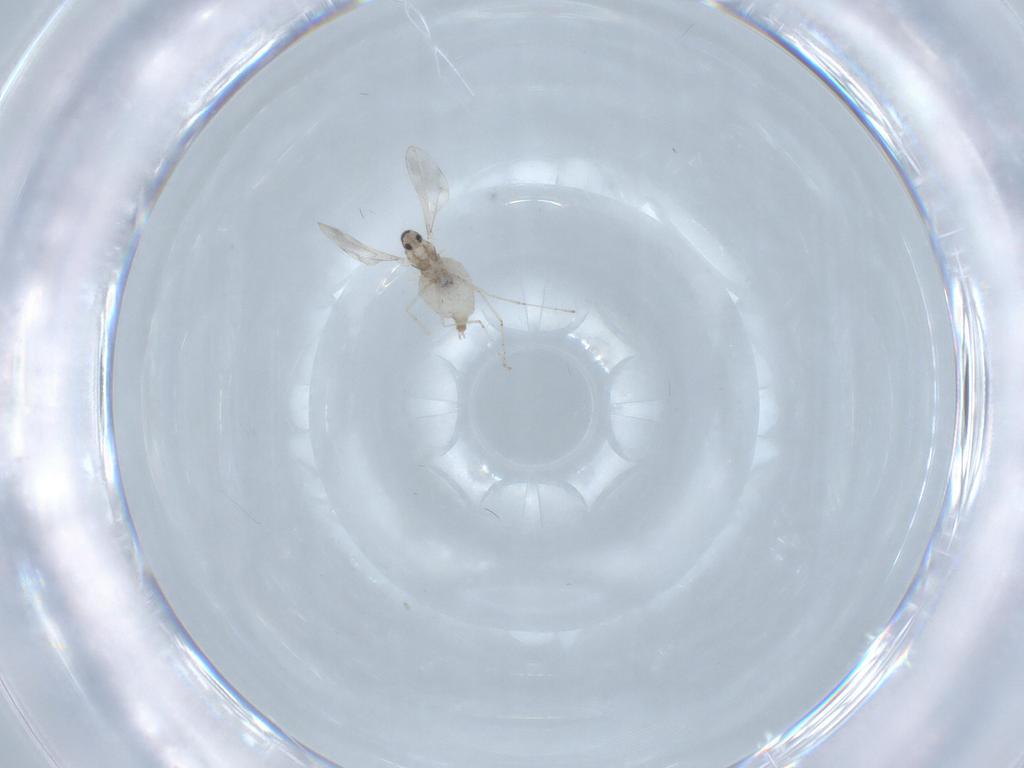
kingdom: Animalia
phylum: Arthropoda
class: Insecta
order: Diptera
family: Cecidomyiidae
